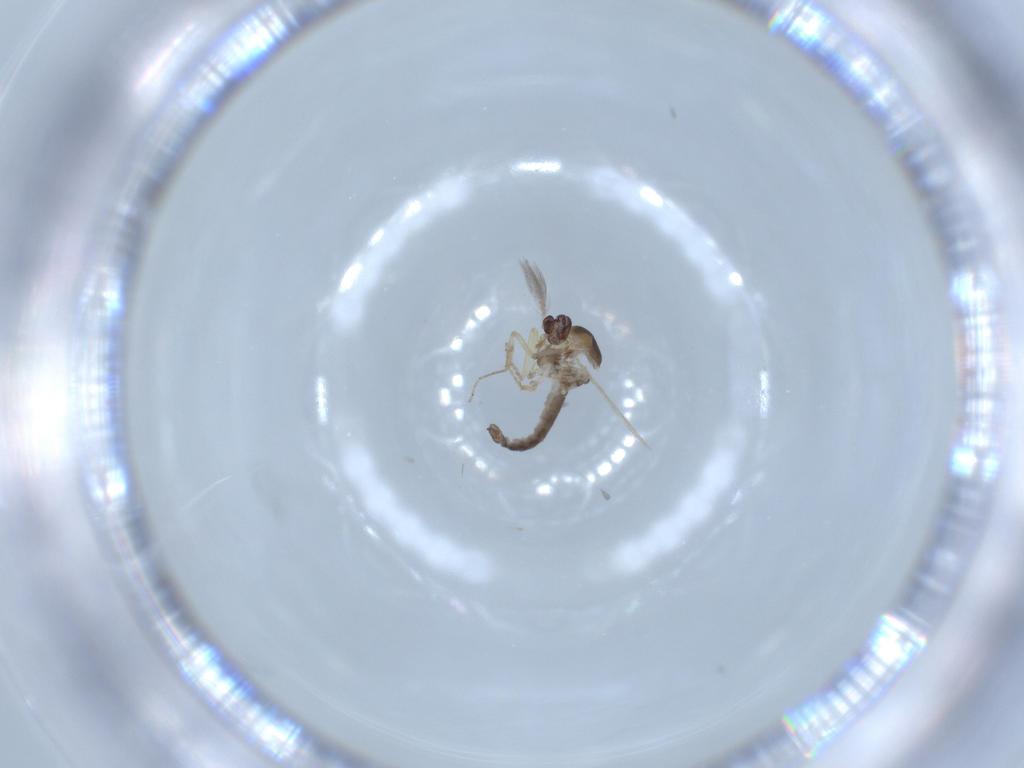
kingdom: Animalia
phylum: Arthropoda
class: Insecta
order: Diptera
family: Ceratopogonidae
